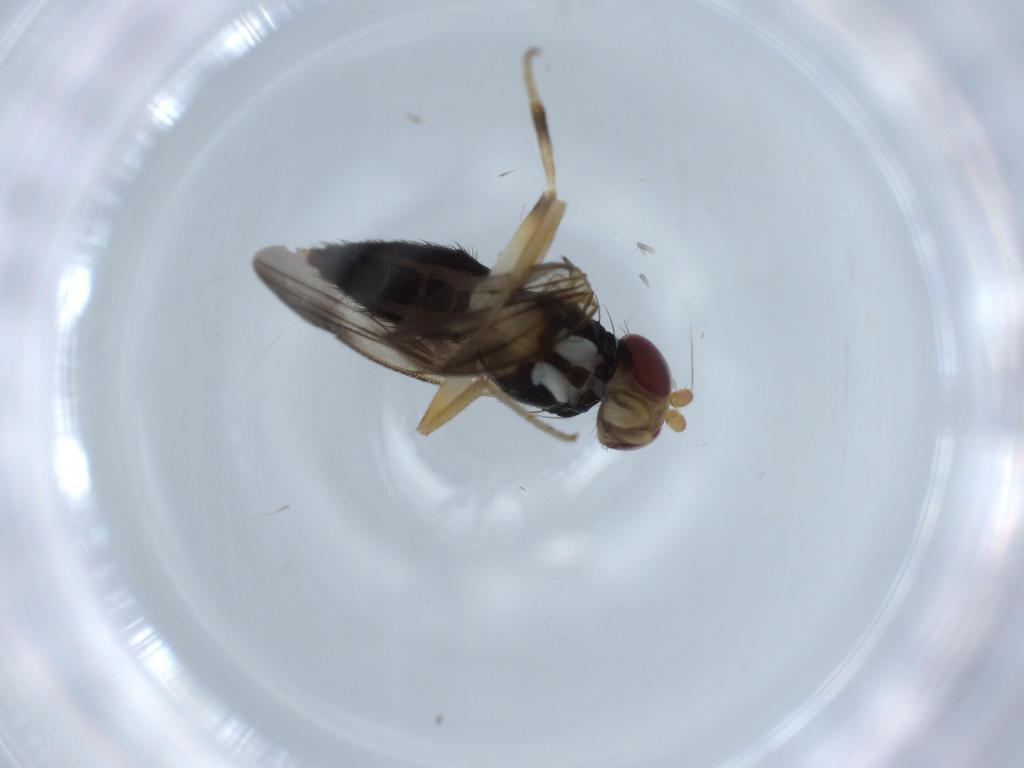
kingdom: Animalia
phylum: Arthropoda
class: Insecta
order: Diptera
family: Clusiidae
